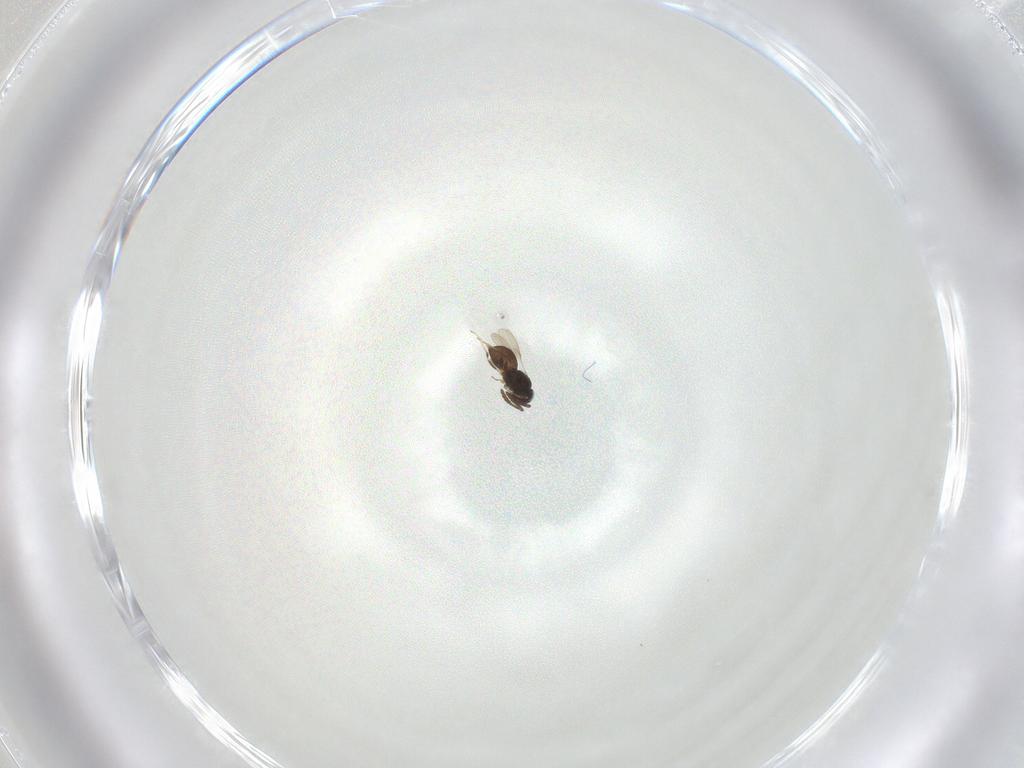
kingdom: Animalia
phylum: Arthropoda
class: Insecta
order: Hymenoptera
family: Scelionidae
